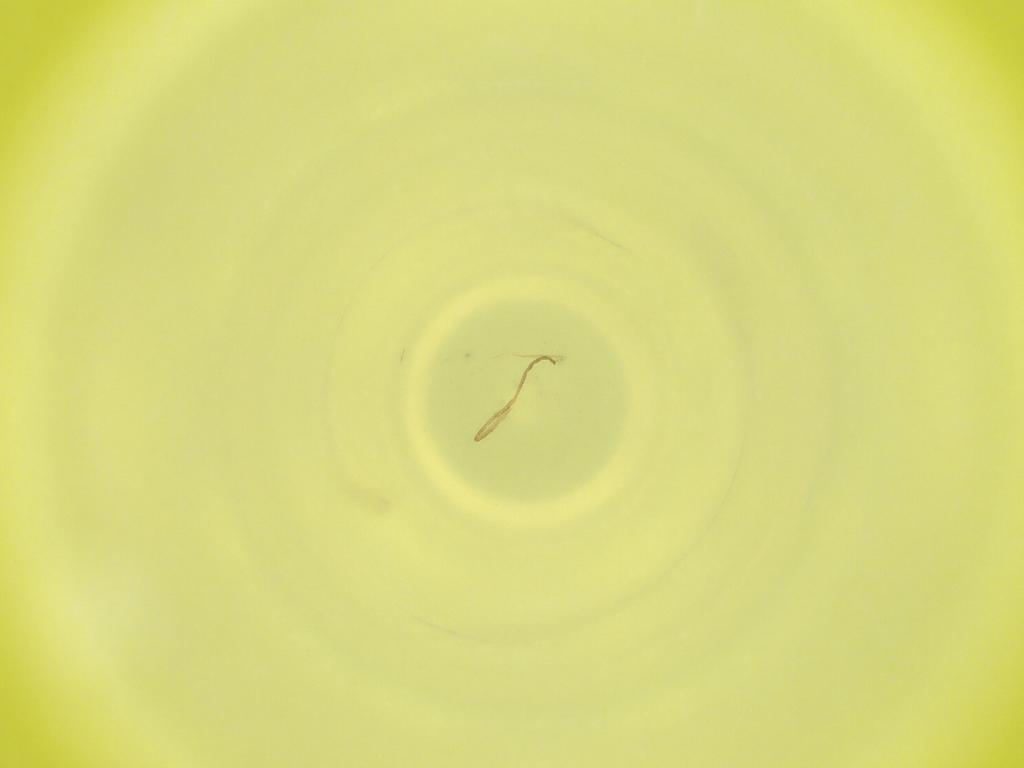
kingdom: Animalia
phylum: Arthropoda
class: Insecta
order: Diptera
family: Cecidomyiidae
